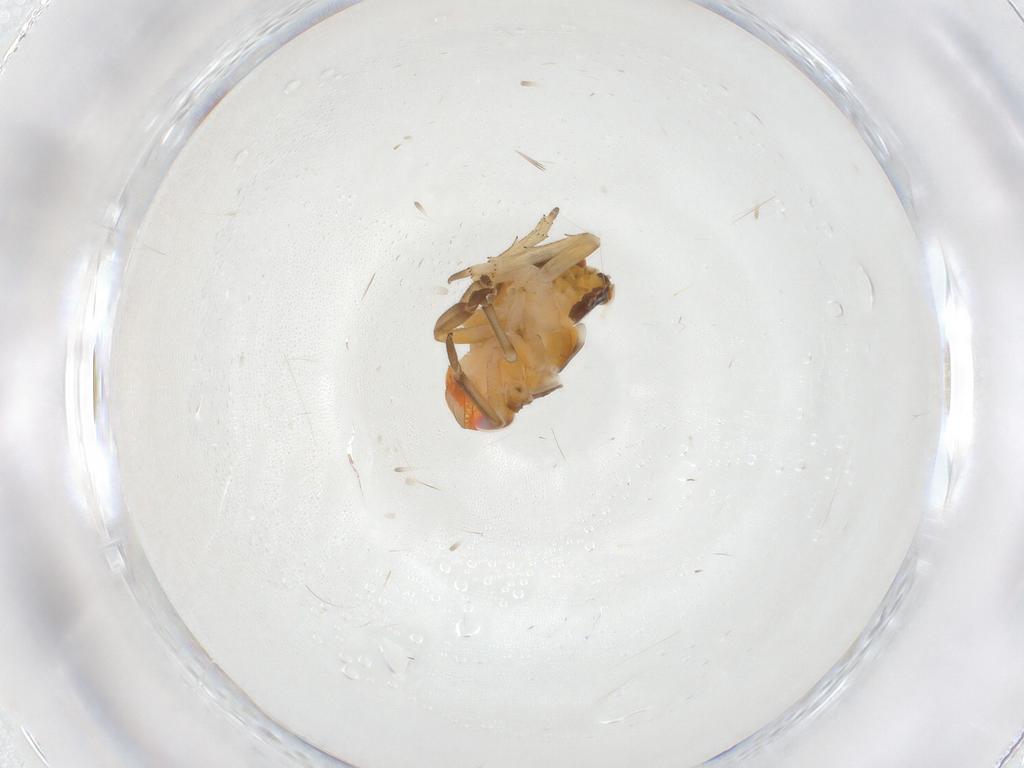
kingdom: Animalia
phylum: Arthropoda
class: Insecta
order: Hemiptera
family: Fulgoroidea_incertae_sedis
